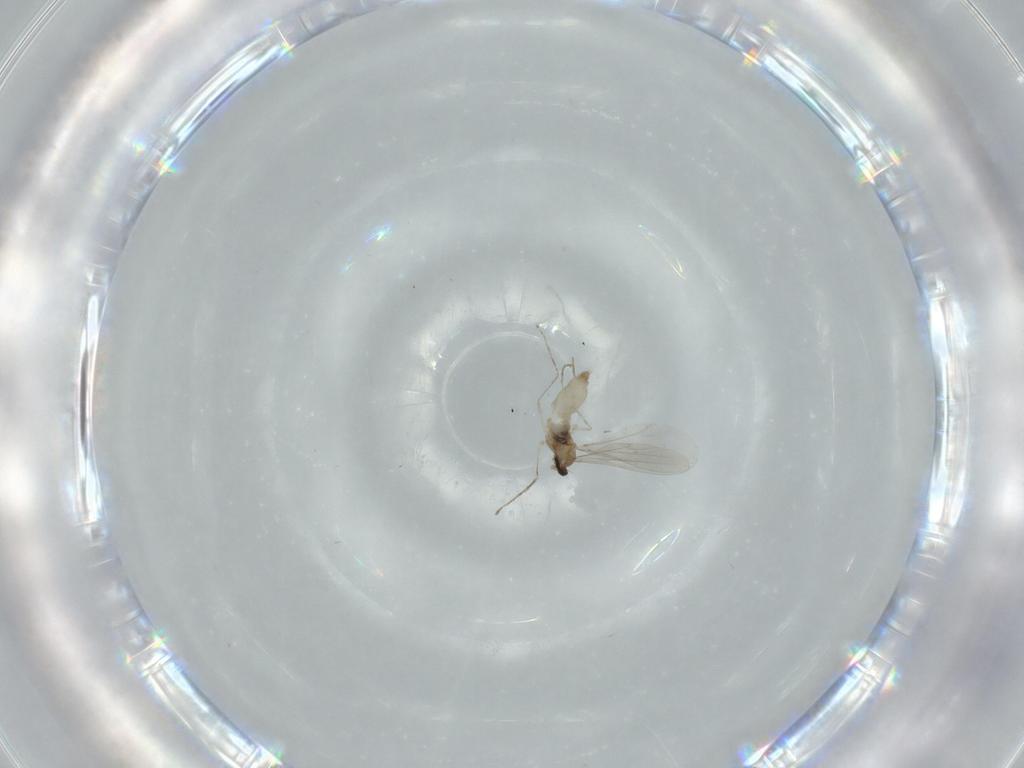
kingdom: Animalia
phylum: Arthropoda
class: Insecta
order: Diptera
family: Cecidomyiidae
